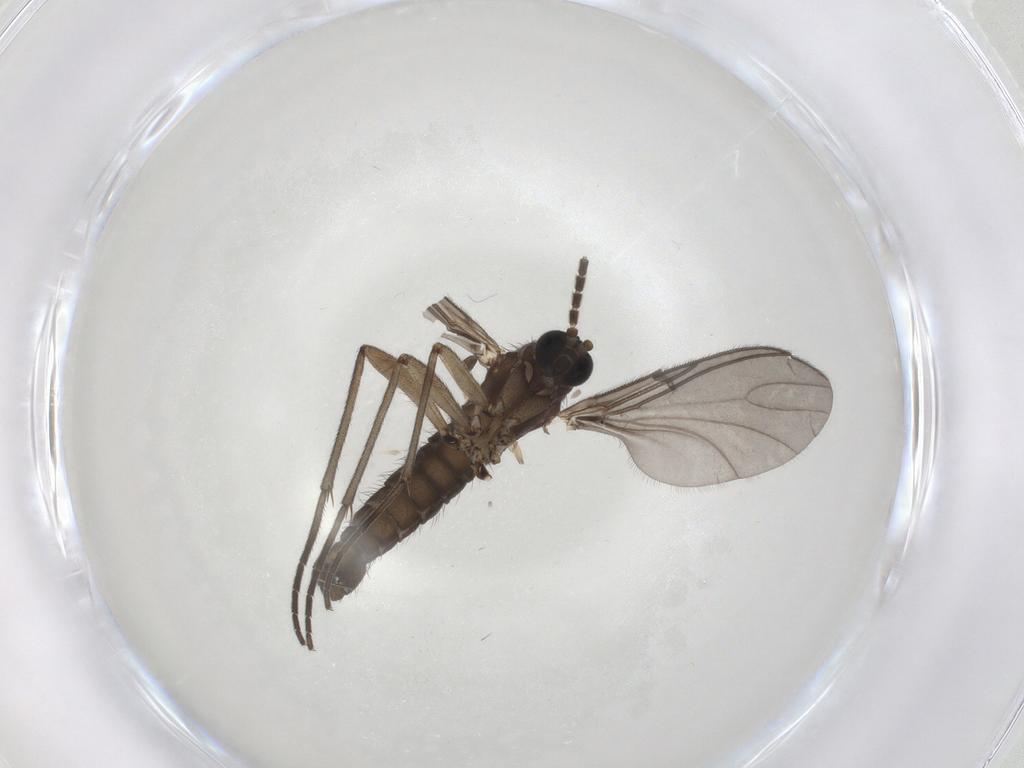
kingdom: Animalia
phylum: Arthropoda
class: Insecta
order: Diptera
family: Sciaridae
